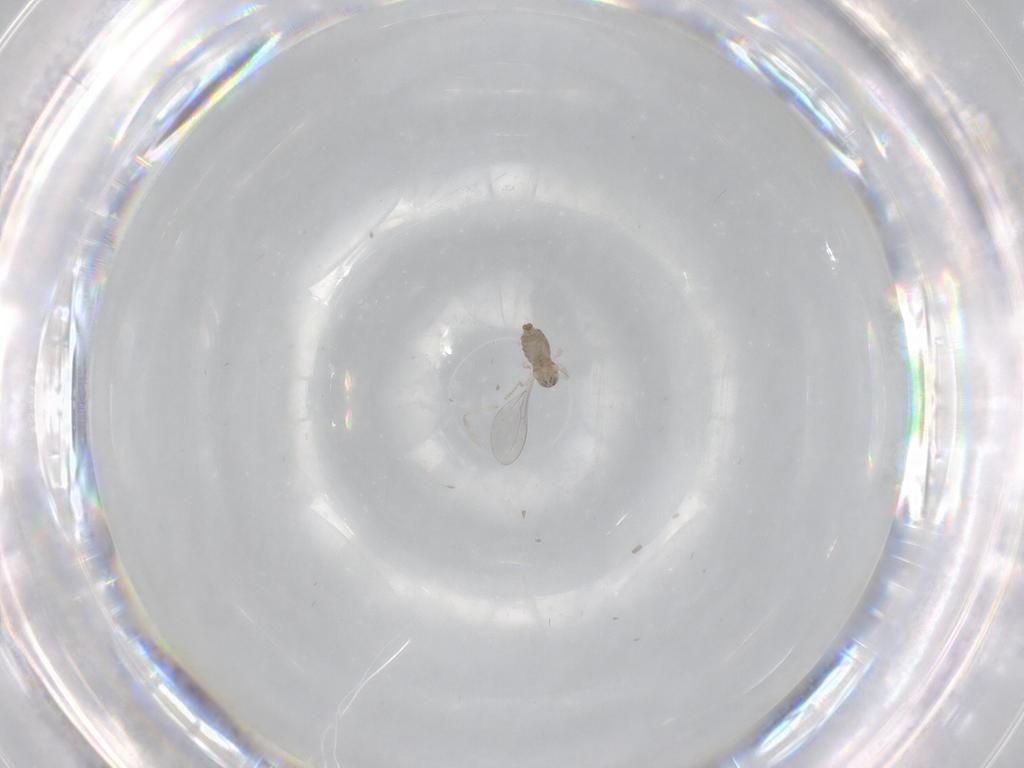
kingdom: Animalia
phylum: Arthropoda
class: Insecta
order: Diptera
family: Cecidomyiidae
